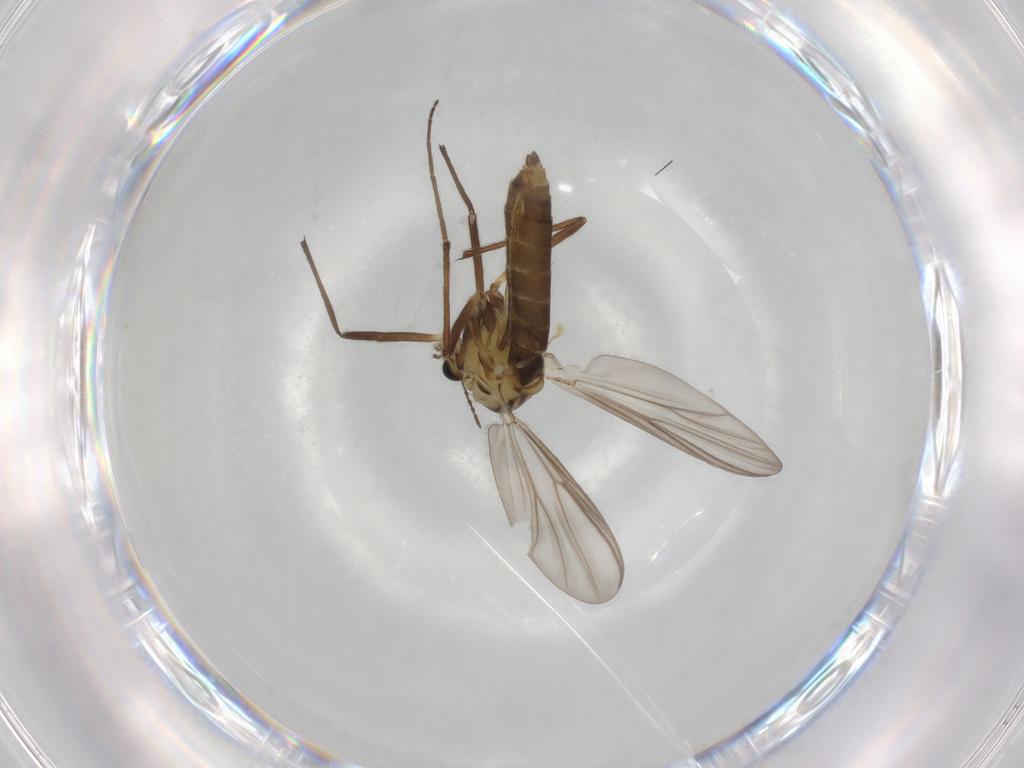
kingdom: Animalia
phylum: Arthropoda
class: Insecta
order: Diptera
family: Chironomidae
